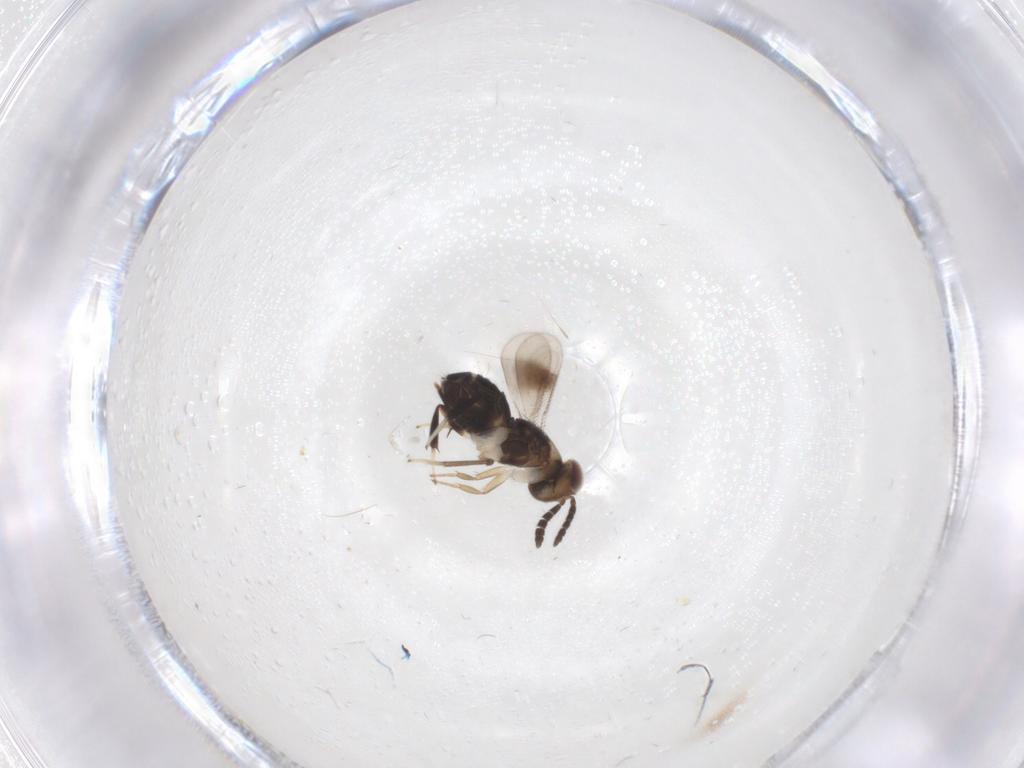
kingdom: Animalia
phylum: Arthropoda
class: Insecta
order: Hymenoptera
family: Aphelinidae
